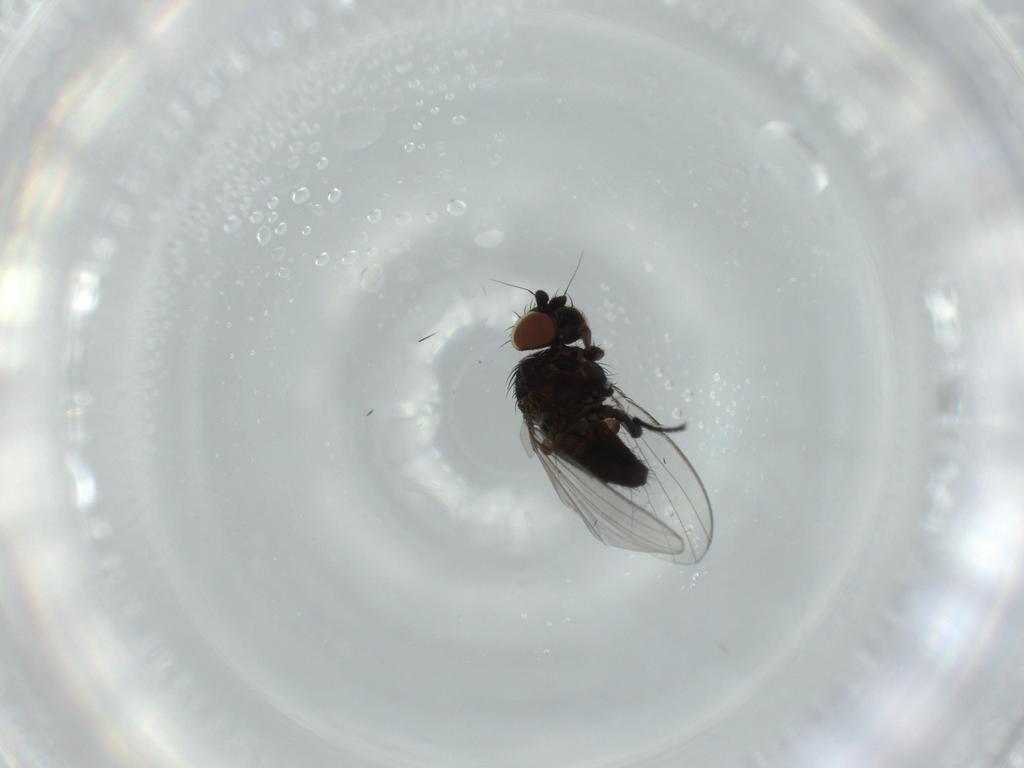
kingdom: Animalia
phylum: Arthropoda
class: Insecta
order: Diptera
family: Milichiidae
